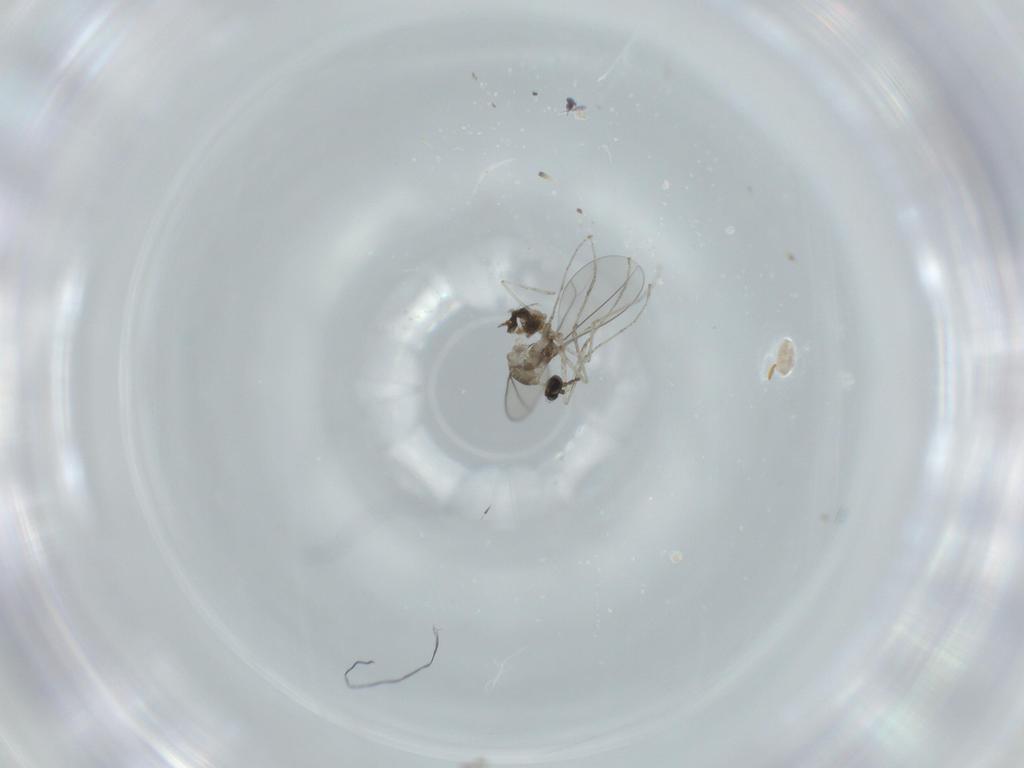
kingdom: Animalia
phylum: Arthropoda
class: Insecta
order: Diptera
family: Cecidomyiidae
